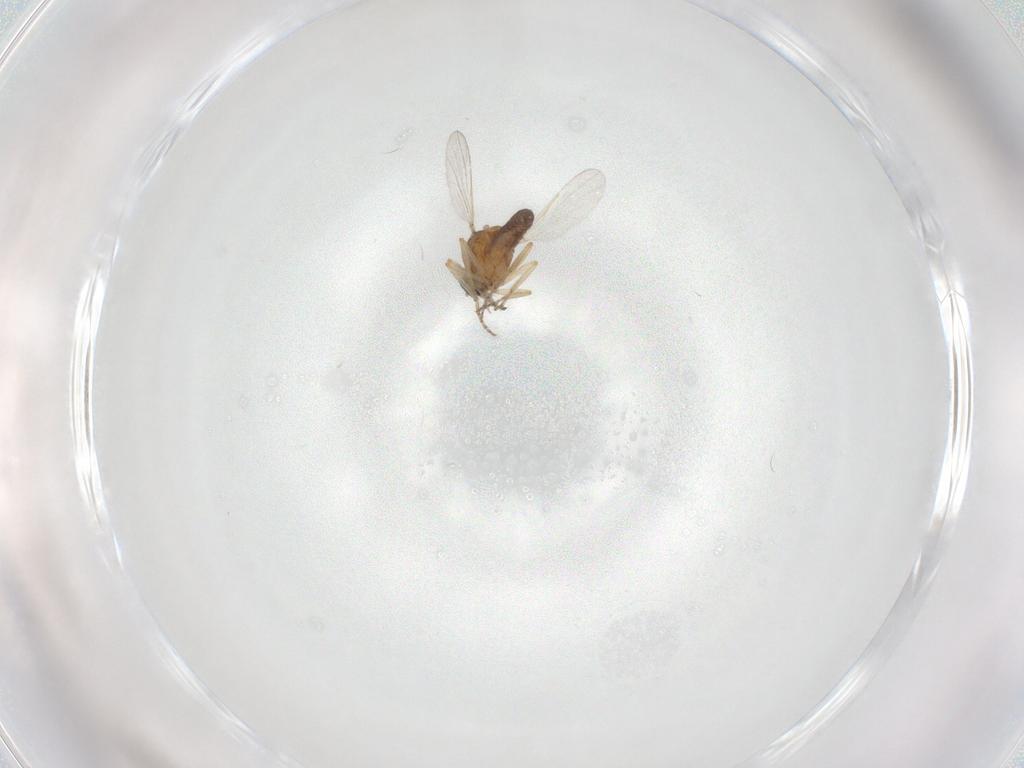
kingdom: Animalia
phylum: Arthropoda
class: Insecta
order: Diptera
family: Ceratopogonidae
